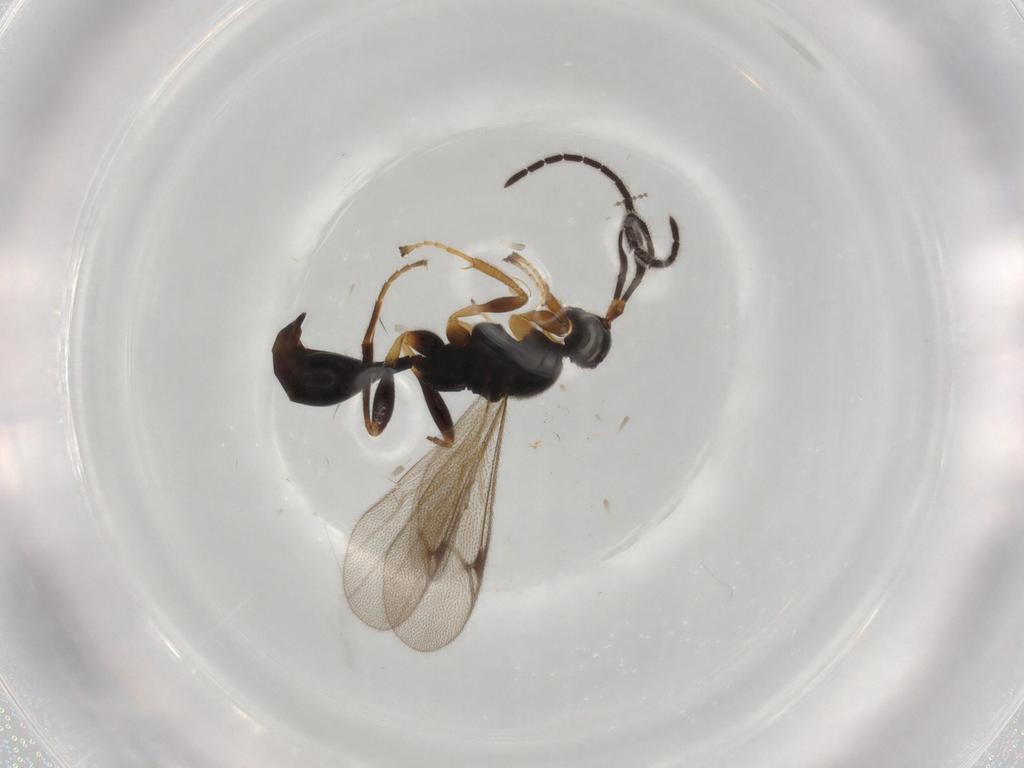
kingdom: Animalia
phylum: Arthropoda
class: Insecta
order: Hymenoptera
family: Proctotrupidae
